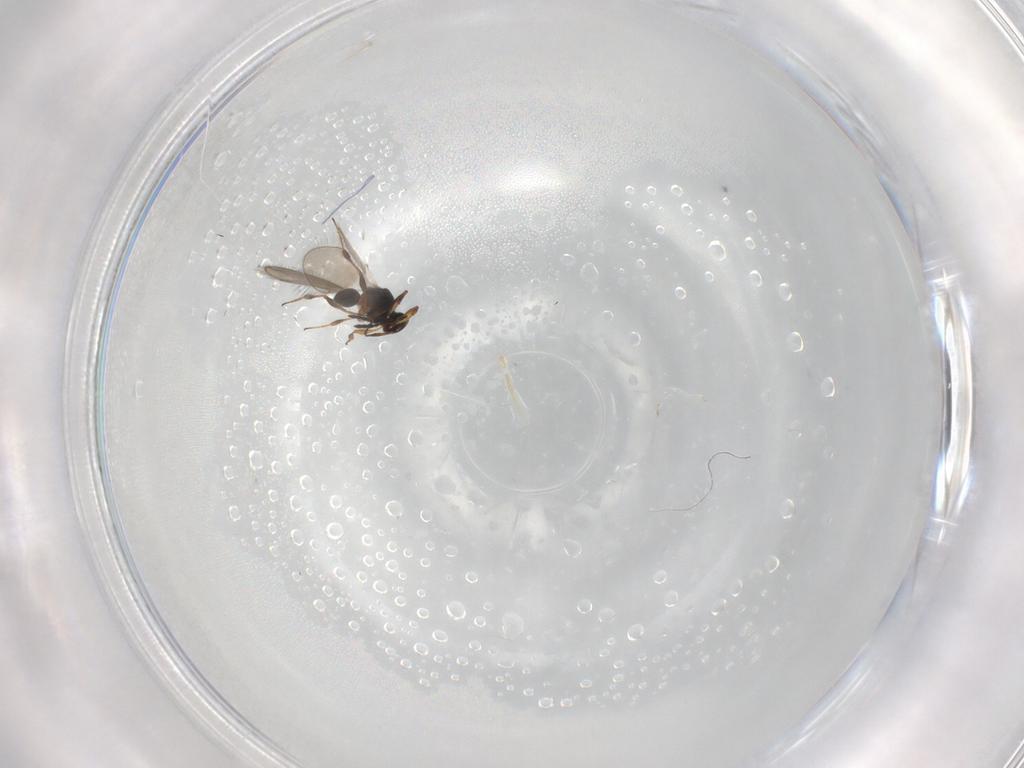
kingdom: Animalia
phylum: Arthropoda
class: Insecta
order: Hymenoptera
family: Platygastridae
